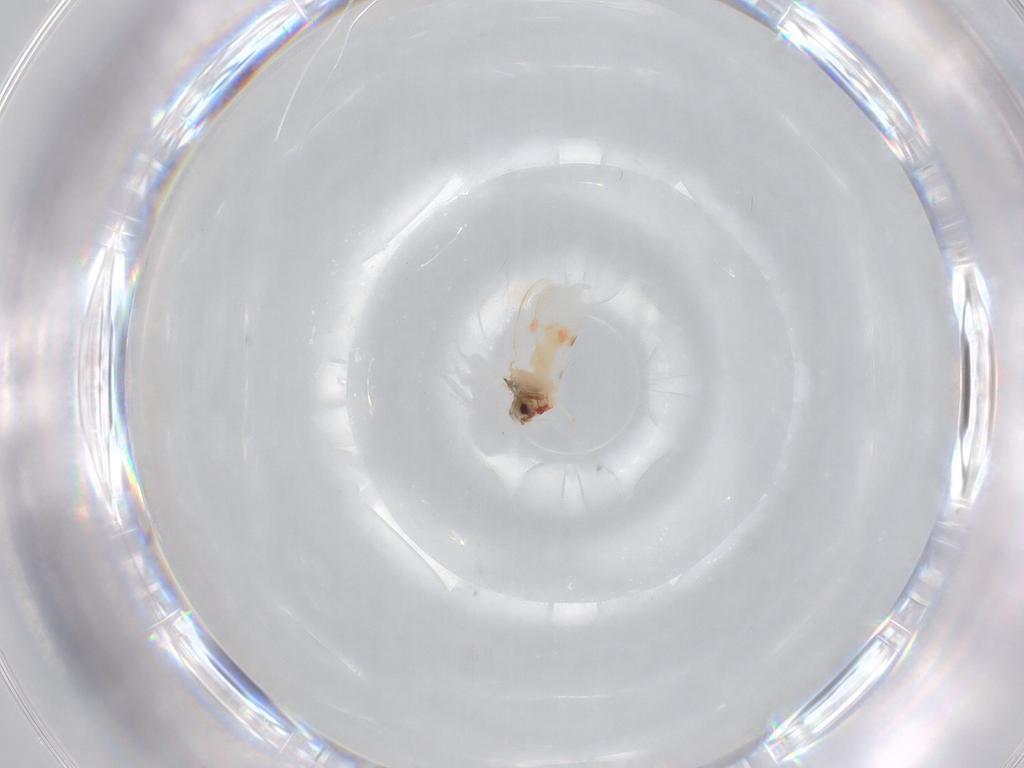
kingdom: Animalia
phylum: Arthropoda
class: Insecta
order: Hemiptera
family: Aleyrodidae
